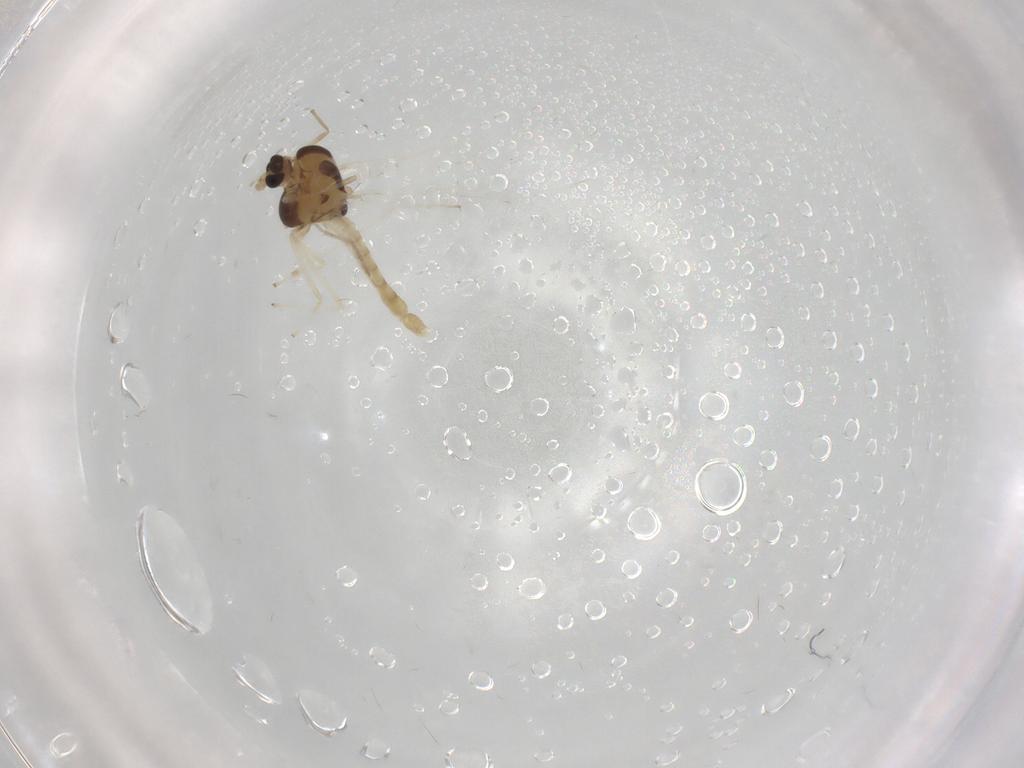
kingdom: Animalia
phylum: Arthropoda
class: Insecta
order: Diptera
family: Chironomidae
